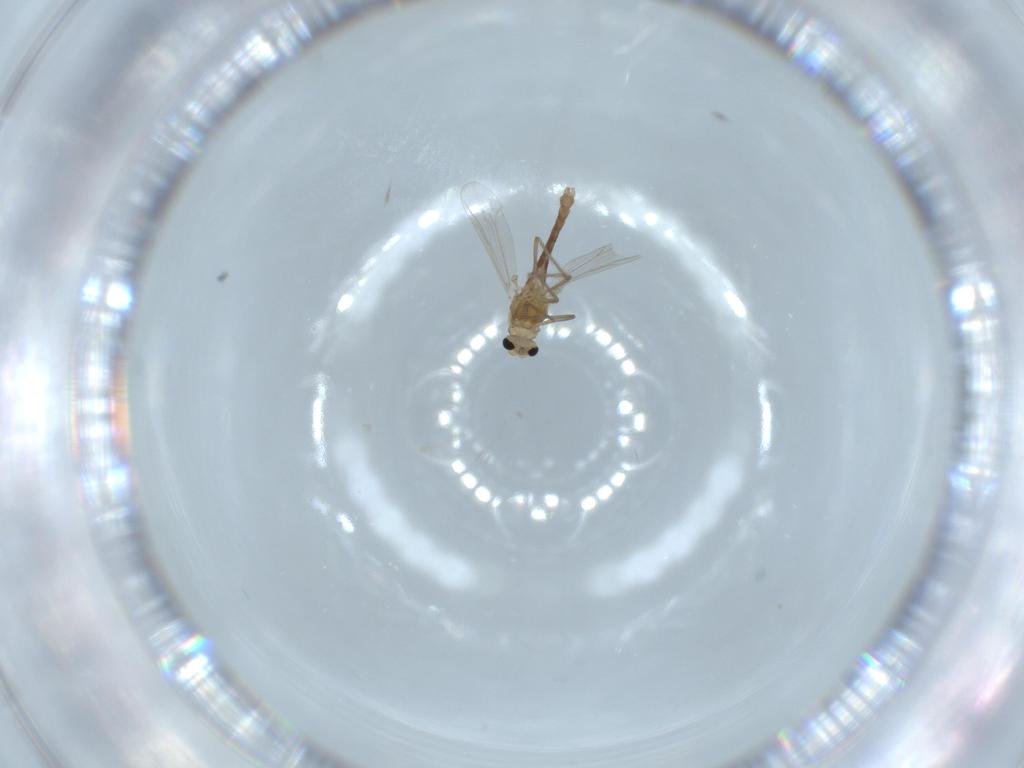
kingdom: Animalia
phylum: Arthropoda
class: Insecta
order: Diptera
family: Chironomidae
